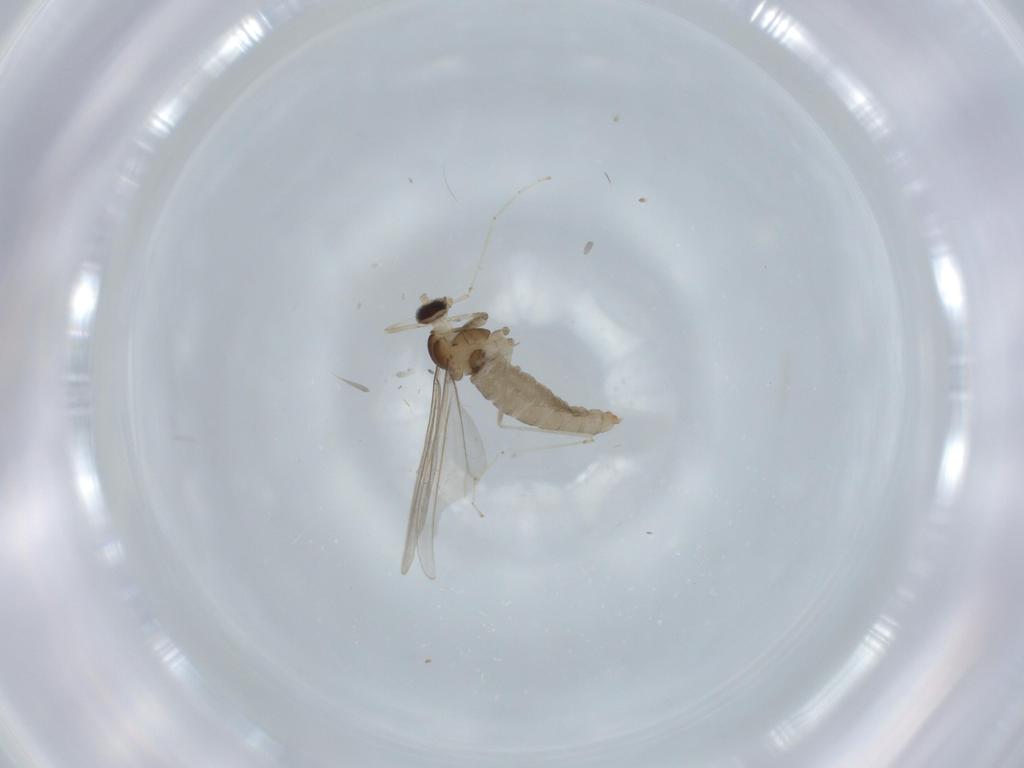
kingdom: Animalia
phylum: Arthropoda
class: Insecta
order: Diptera
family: Cecidomyiidae
